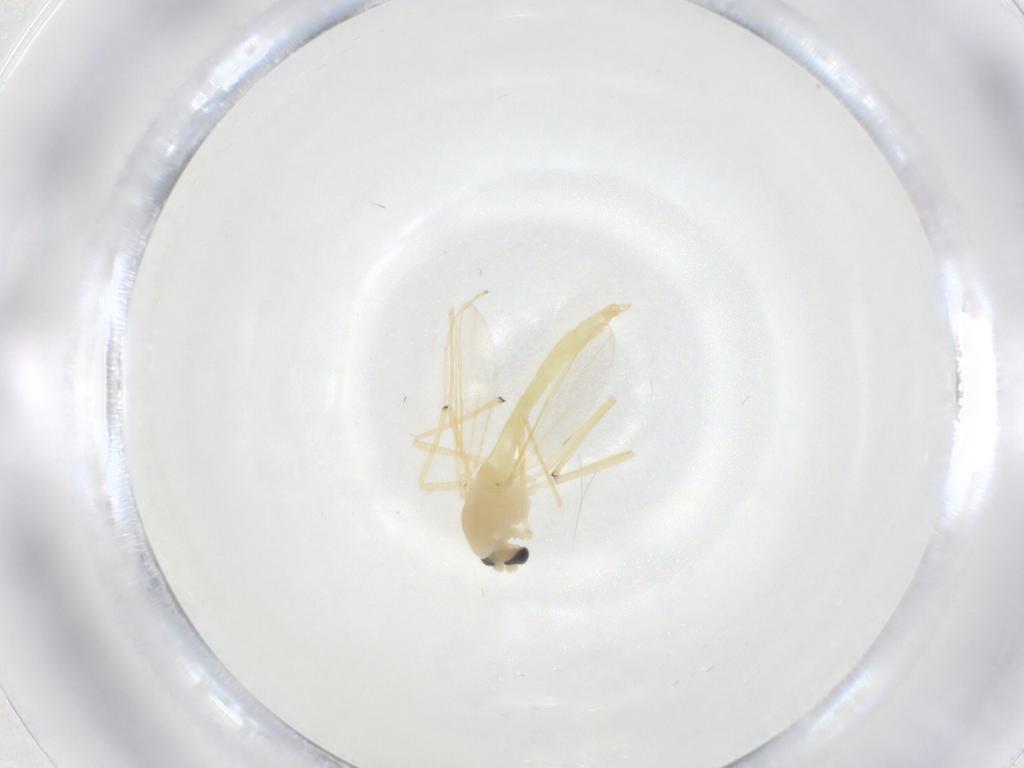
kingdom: Animalia
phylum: Arthropoda
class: Insecta
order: Diptera
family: Chironomidae
